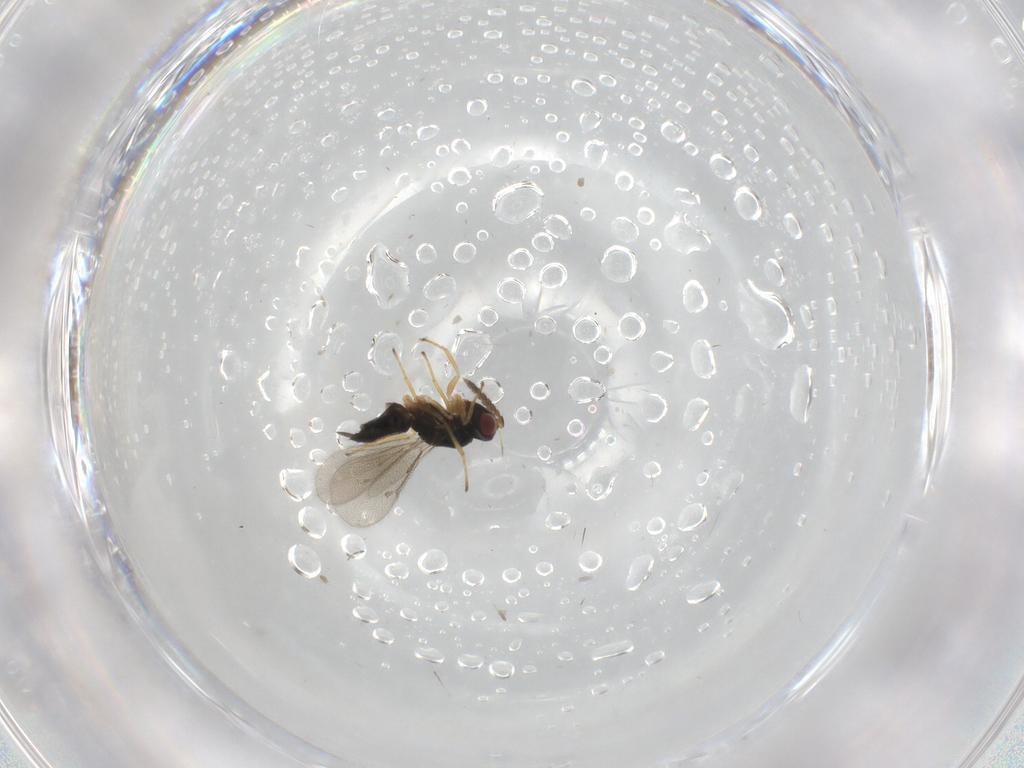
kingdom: Animalia
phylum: Arthropoda
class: Insecta
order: Hymenoptera
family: Eulophidae
